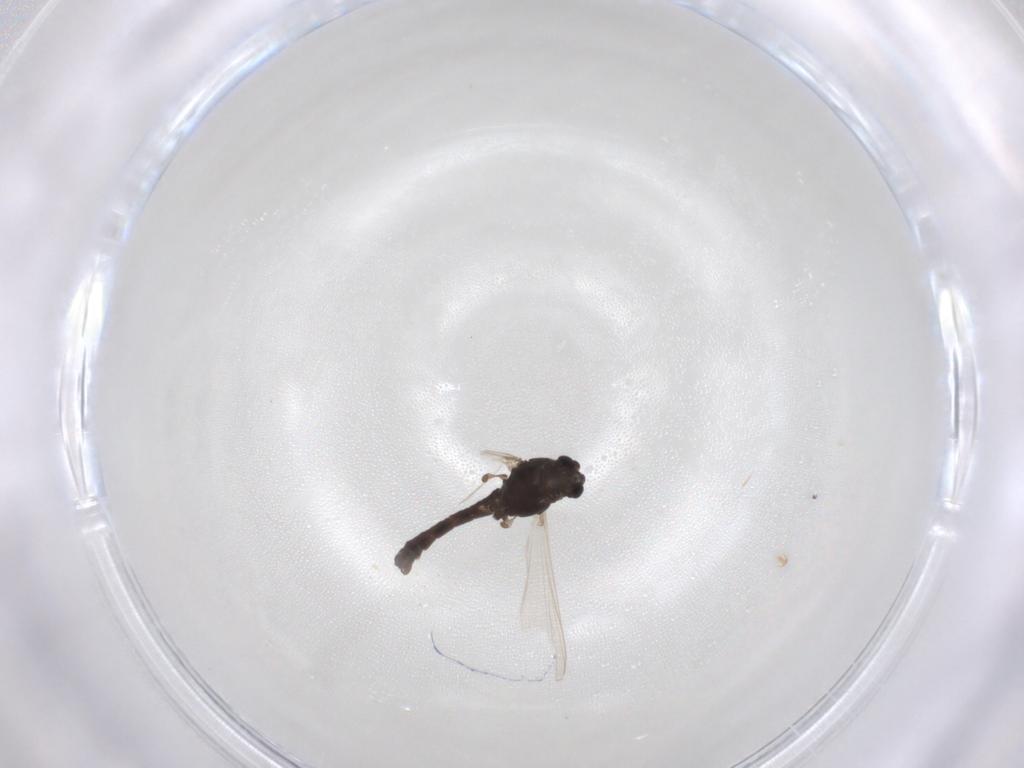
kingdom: Animalia
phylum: Arthropoda
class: Insecta
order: Diptera
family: Chironomidae
